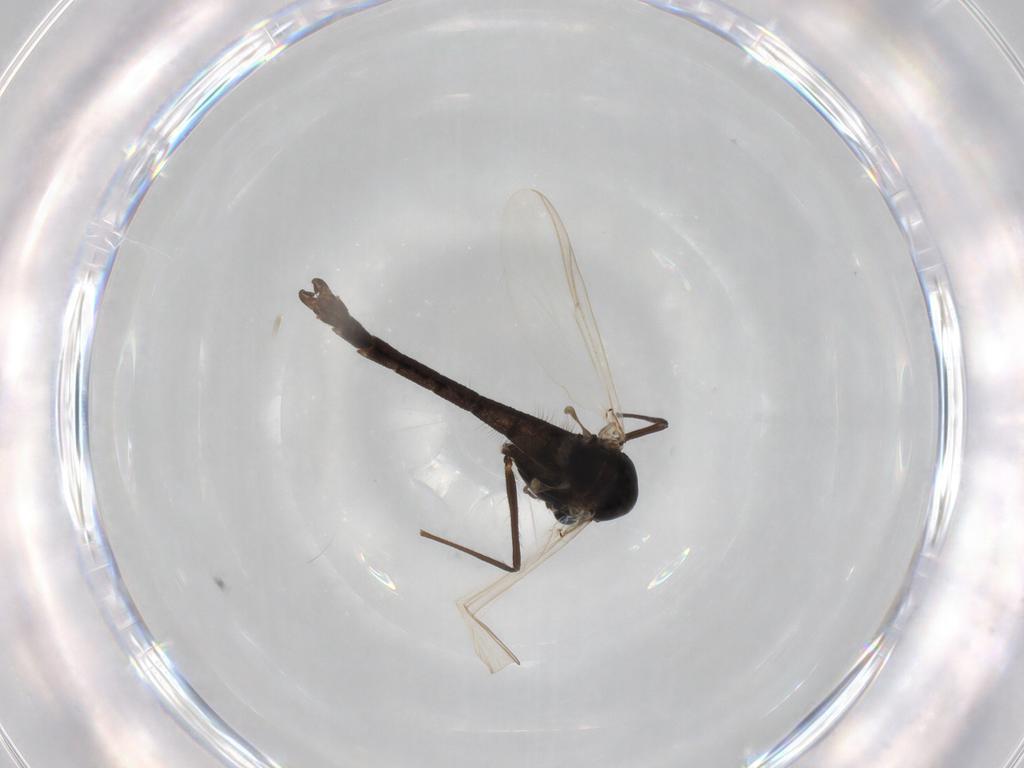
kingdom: Animalia
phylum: Arthropoda
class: Insecta
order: Diptera
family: Chironomidae
